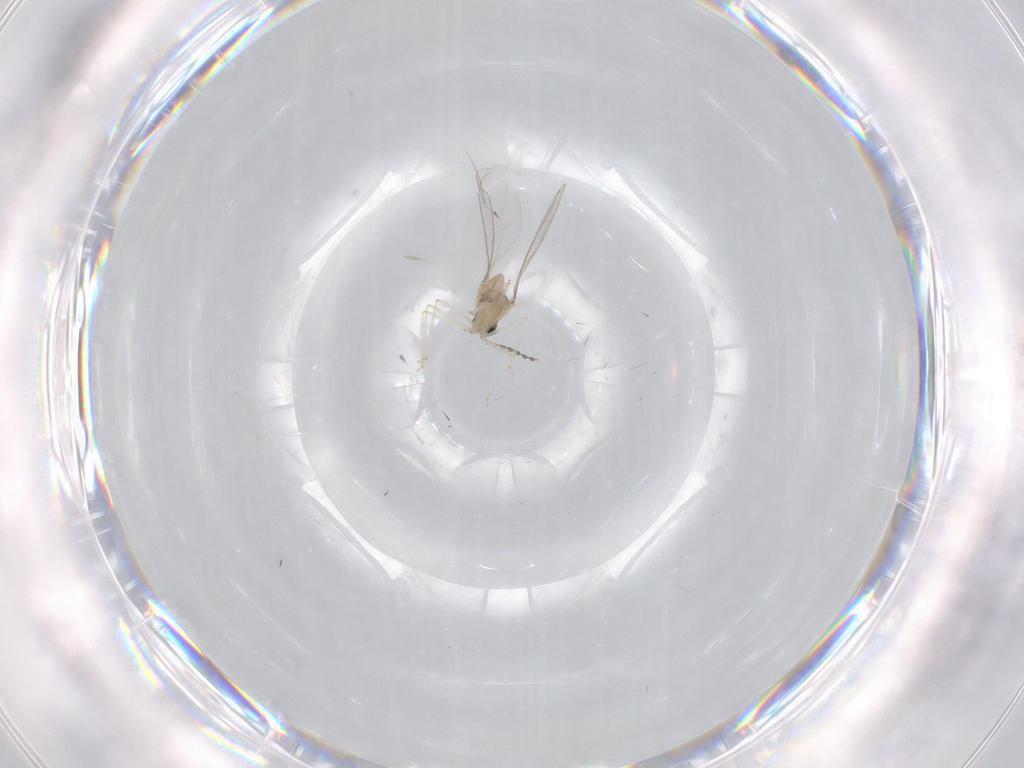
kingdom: Animalia
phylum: Arthropoda
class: Insecta
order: Diptera
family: Cecidomyiidae
